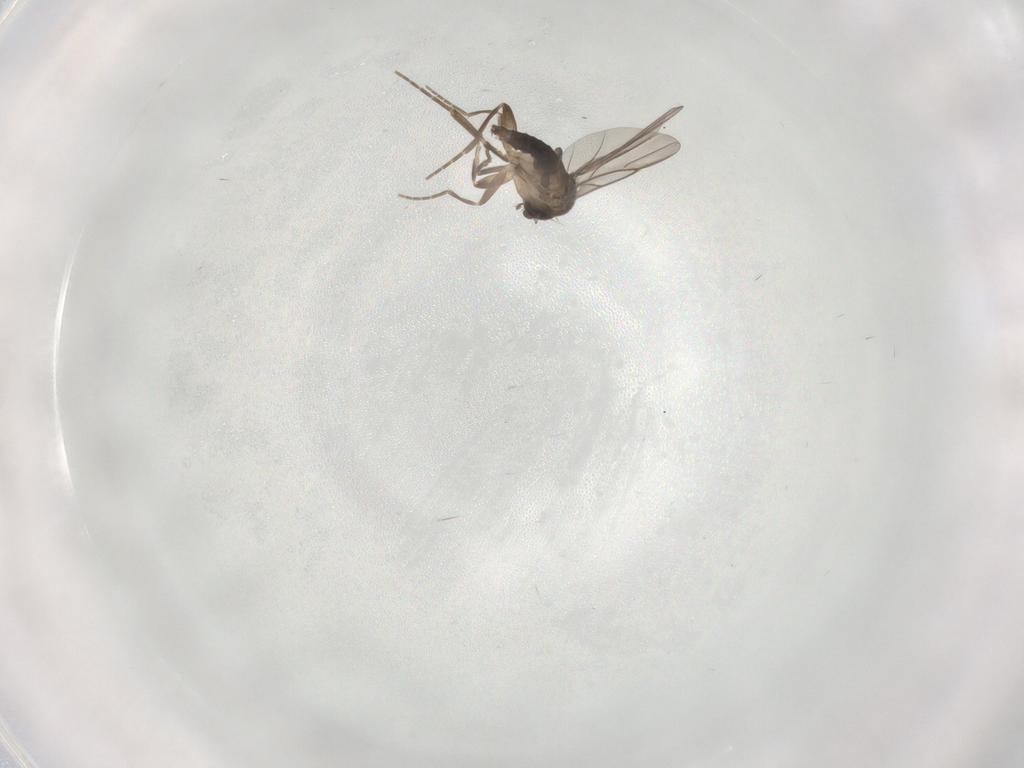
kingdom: Animalia
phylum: Arthropoda
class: Insecta
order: Diptera
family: Phoridae
